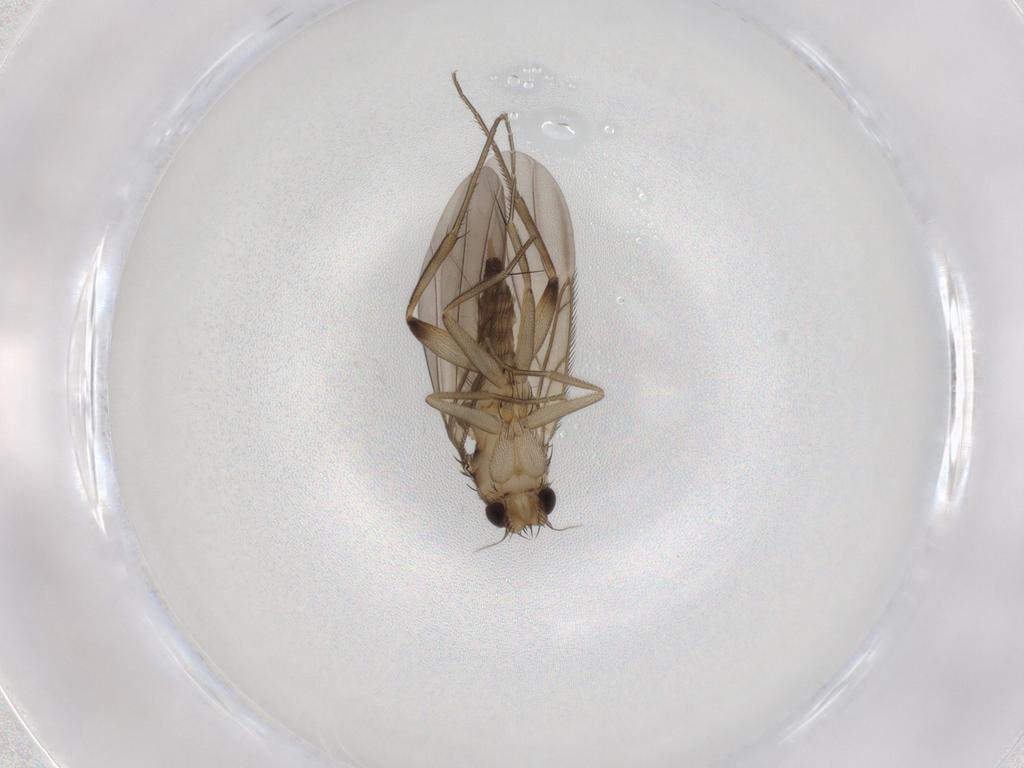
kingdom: Animalia
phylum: Arthropoda
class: Insecta
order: Diptera
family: Phoridae
